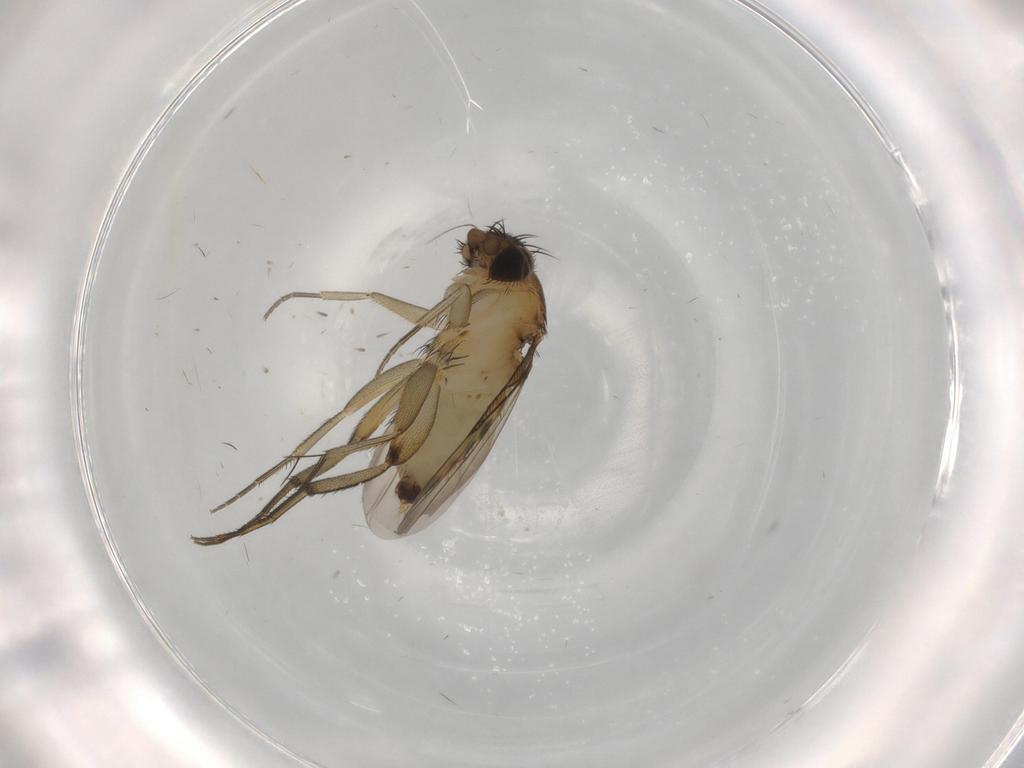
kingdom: Animalia
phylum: Arthropoda
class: Insecta
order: Diptera
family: Phoridae
